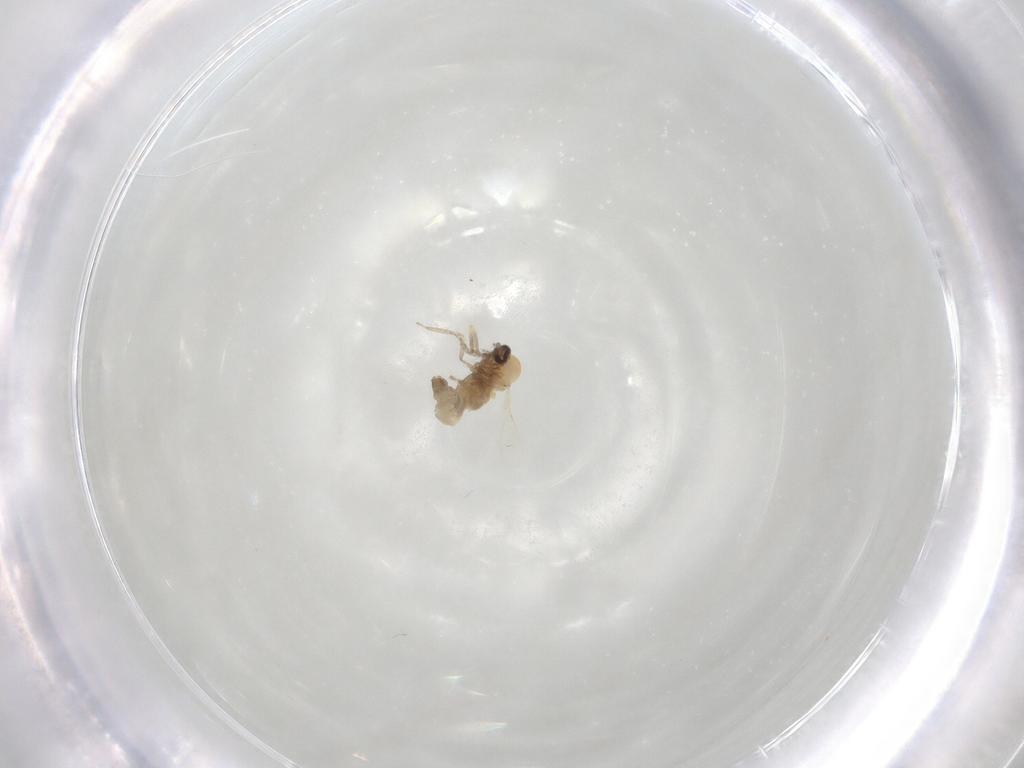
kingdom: Animalia
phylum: Arthropoda
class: Insecta
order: Diptera
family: Ceratopogonidae
